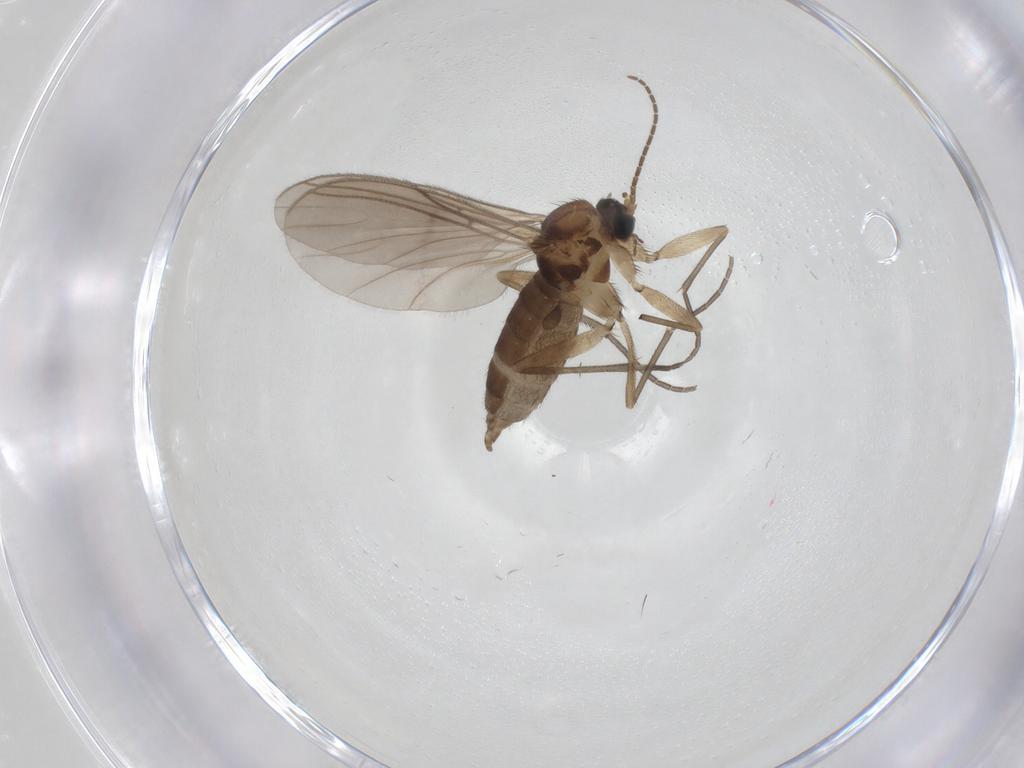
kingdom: Animalia
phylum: Arthropoda
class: Insecta
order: Diptera
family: Sciaridae
